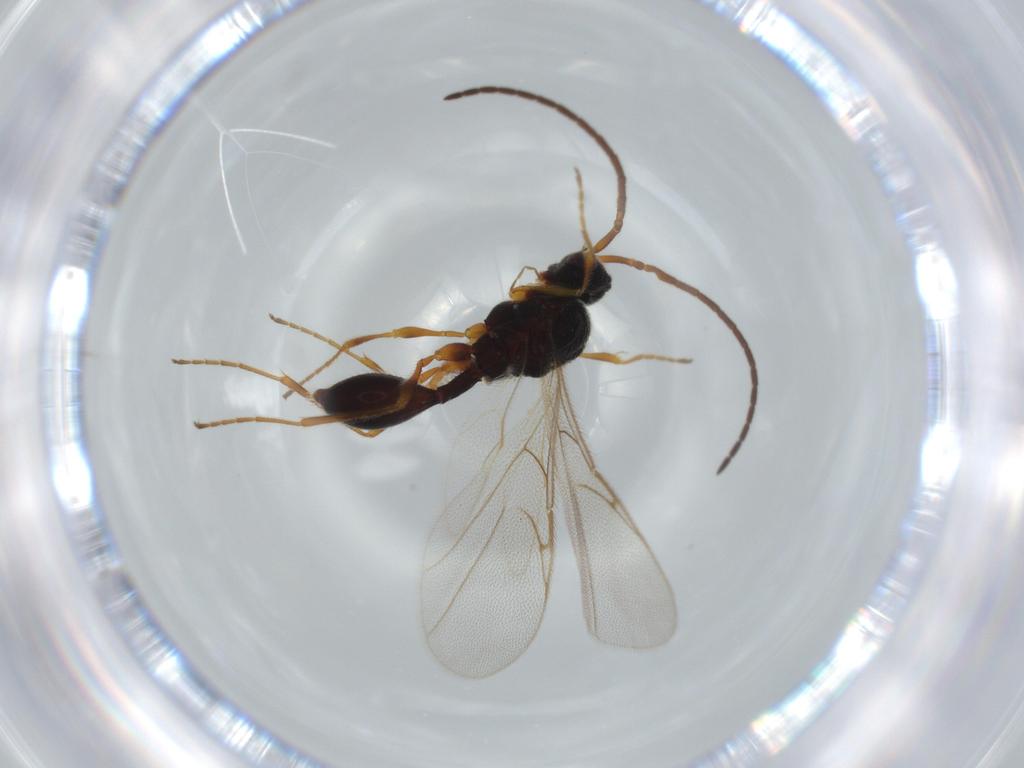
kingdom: Animalia
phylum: Arthropoda
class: Insecta
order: Hymenoptera
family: Diapriidae
